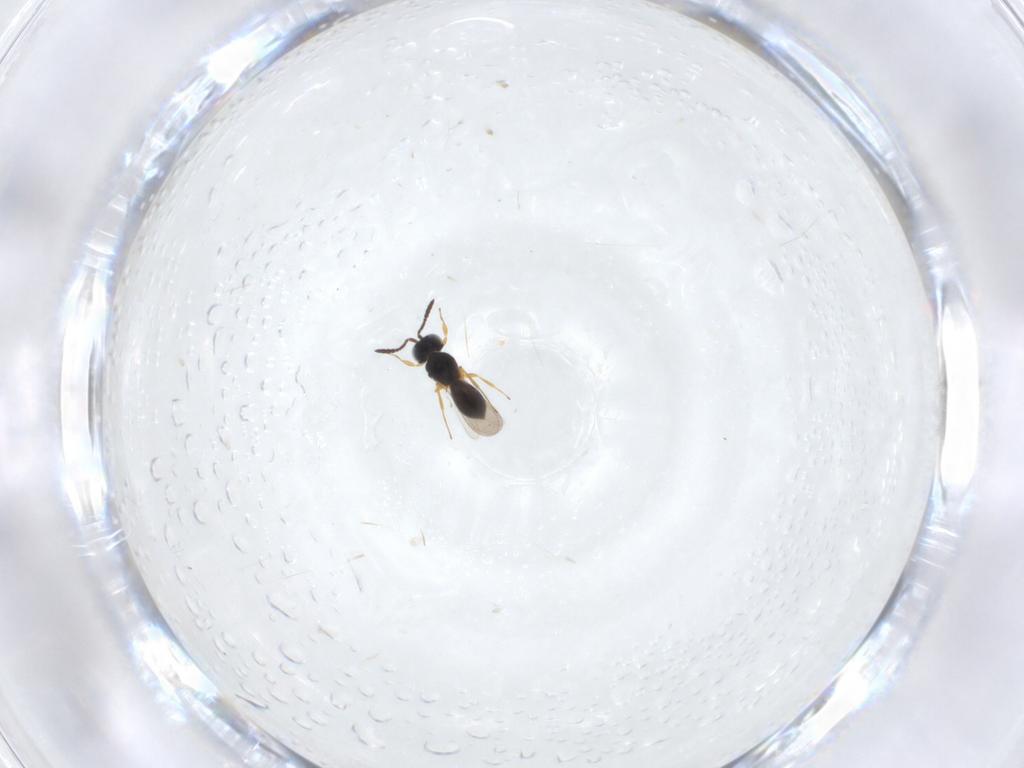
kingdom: Animalia
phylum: Arthropoda
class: Insecta
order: Hymenoptera
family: Scelionidae
